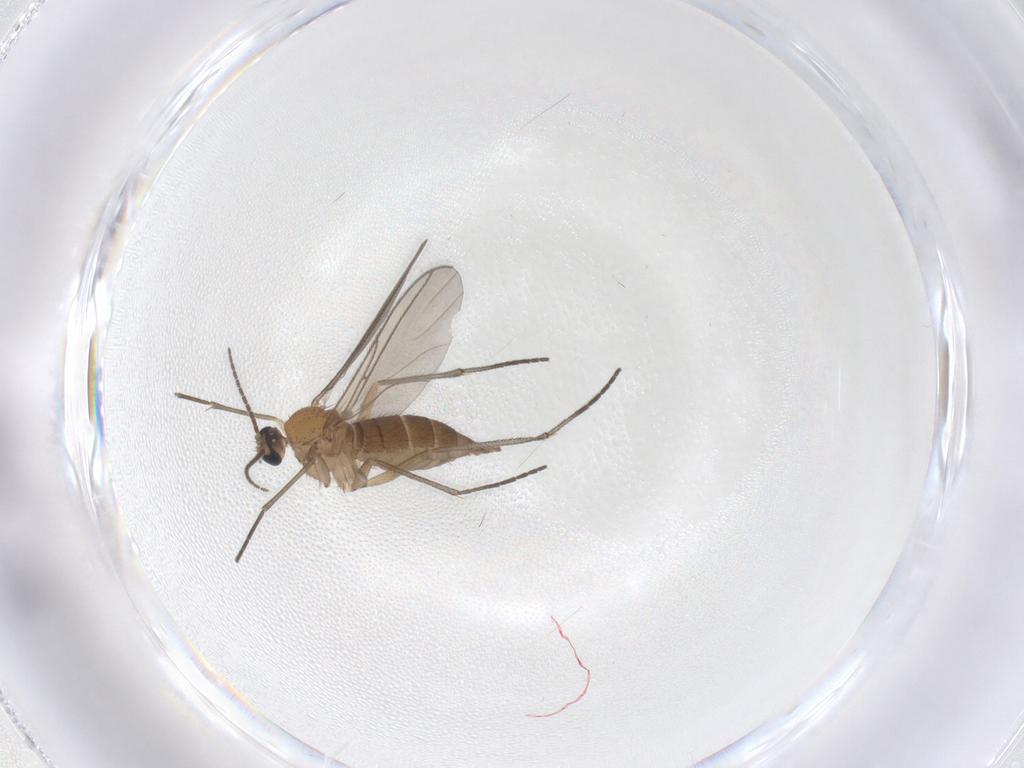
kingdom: Animalia
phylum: Arthropoda
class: Insecta
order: Diptera
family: Sciaridae
